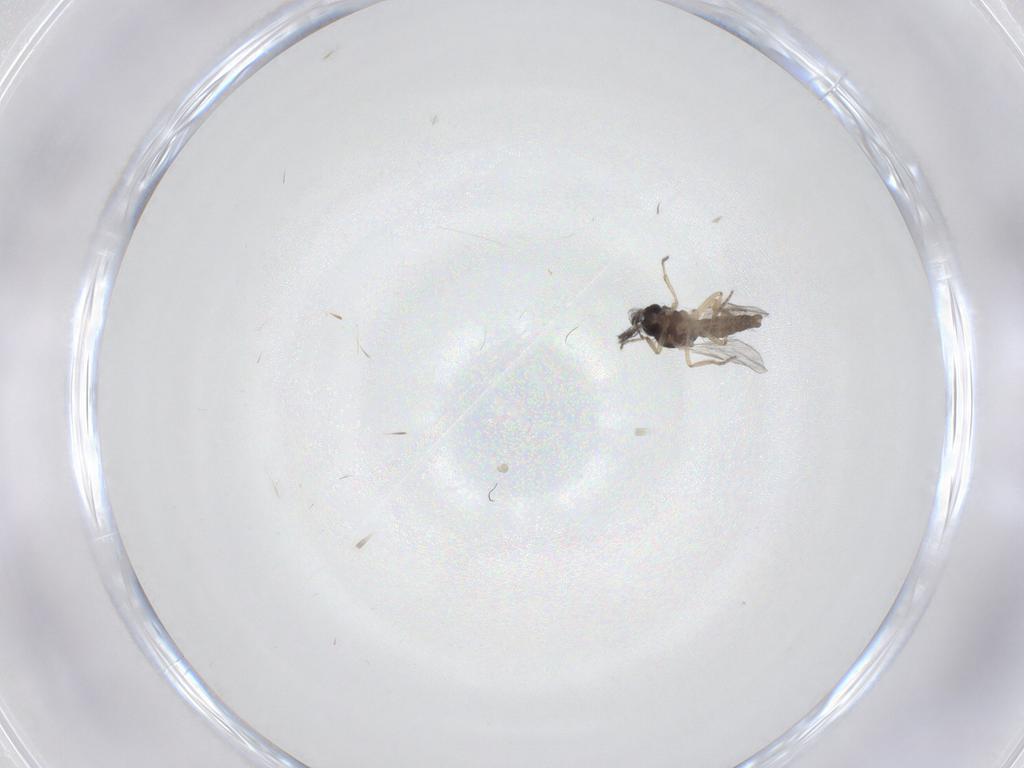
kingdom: Animalia
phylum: Arthropoda
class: Insecta
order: Diptera
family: Ceratopogonidae
